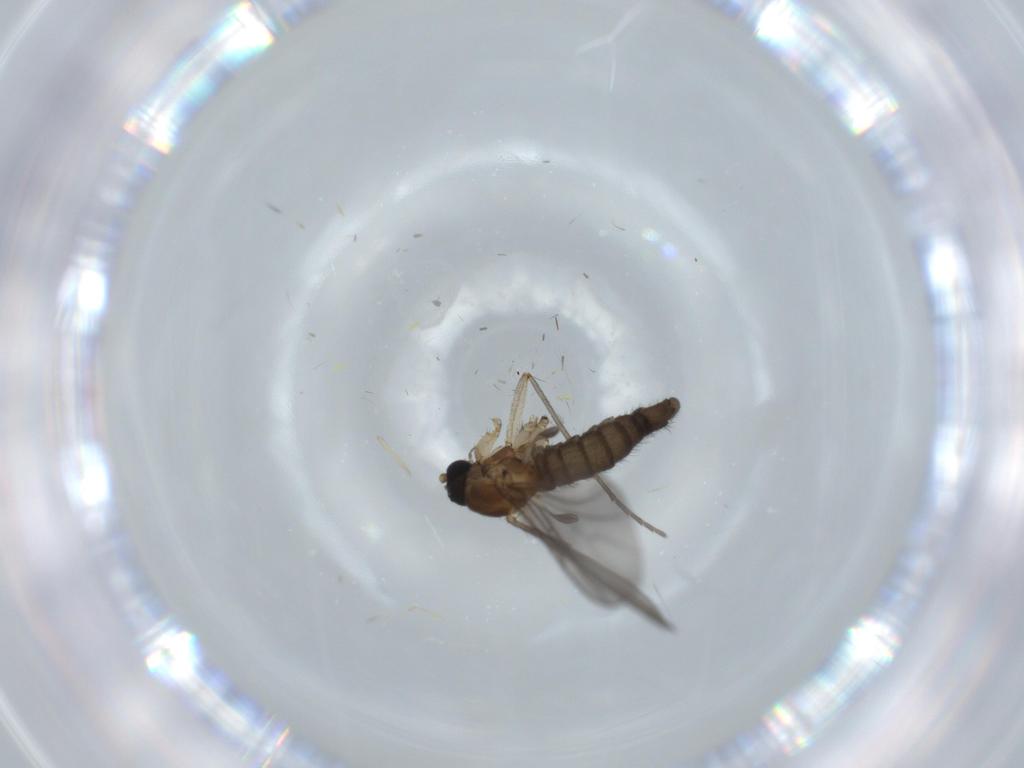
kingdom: Animalia
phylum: Arthropoda
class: Insecta
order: Diptera
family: Sciaridae
